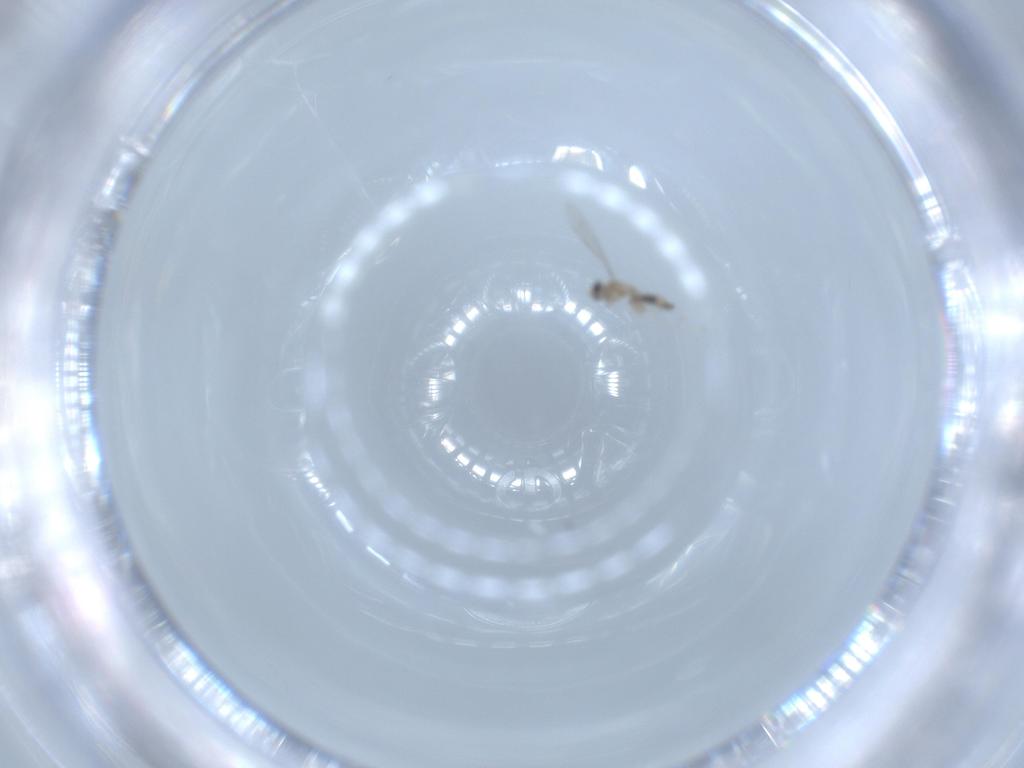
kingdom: Animalia
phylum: Arthropoda
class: Insecta
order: Diptera
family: Cecidomyiidae
